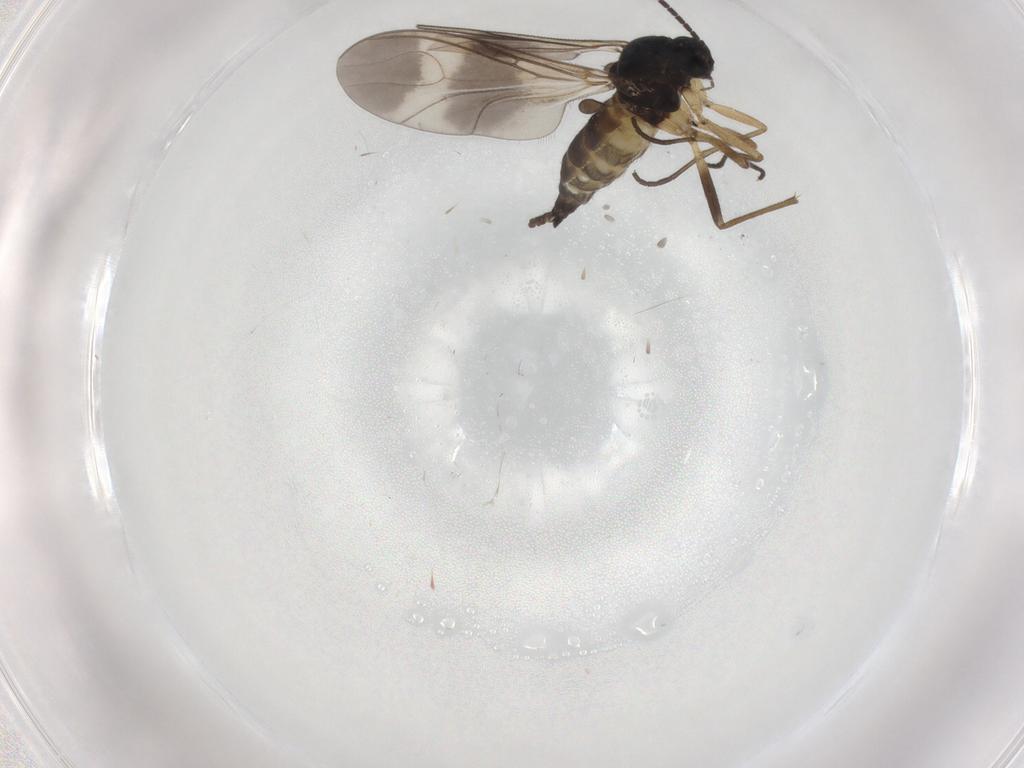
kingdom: Animalia
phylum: Arthropoda
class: Insecta
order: Diptera
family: Sciaridae
